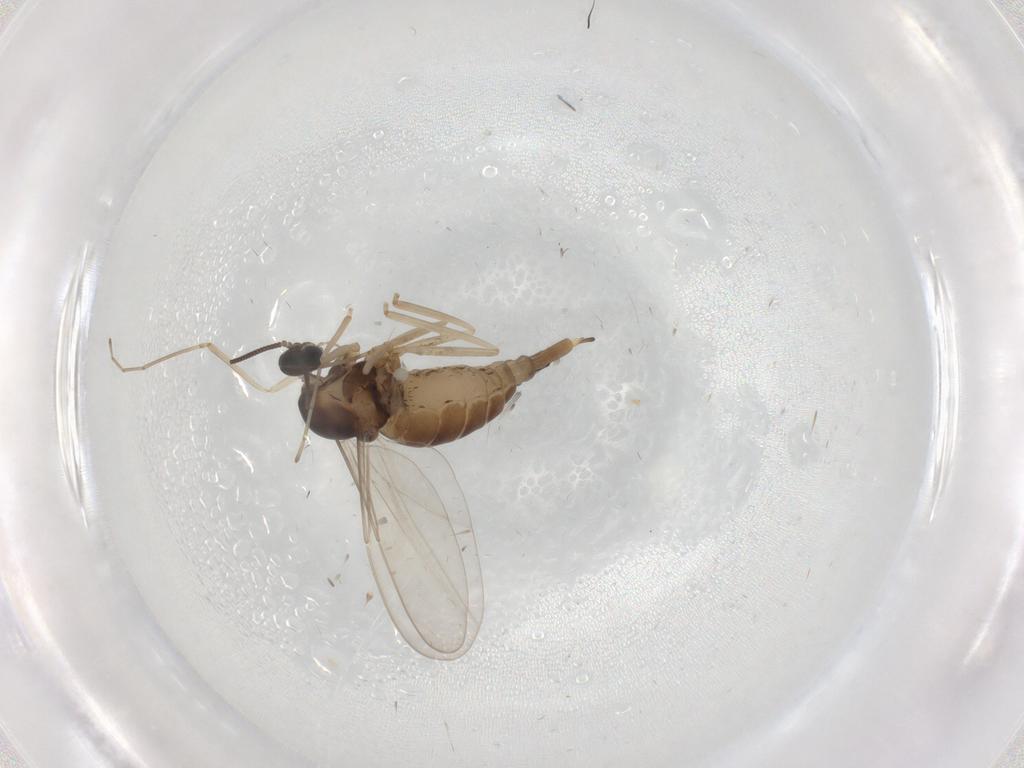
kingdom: Animalia
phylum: Arthropoda
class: Insecta
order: Diptera
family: Cecidomyiidae
